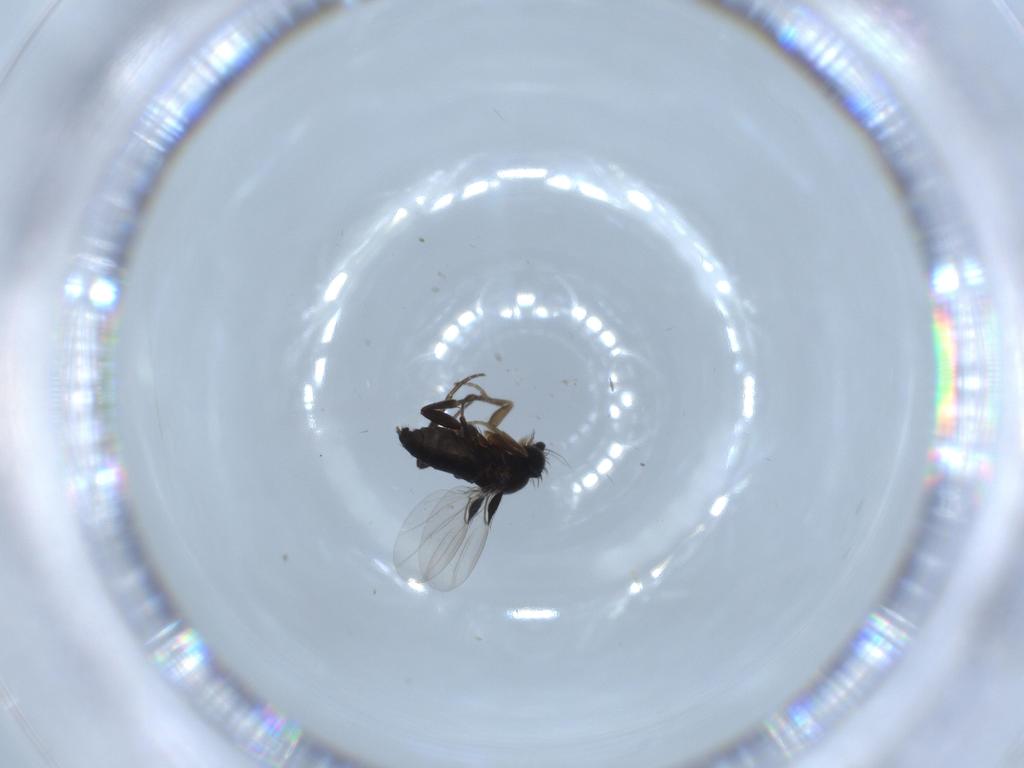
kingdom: Animalia
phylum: Arthropoda
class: Insecta
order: Diptera
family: Phoridae
